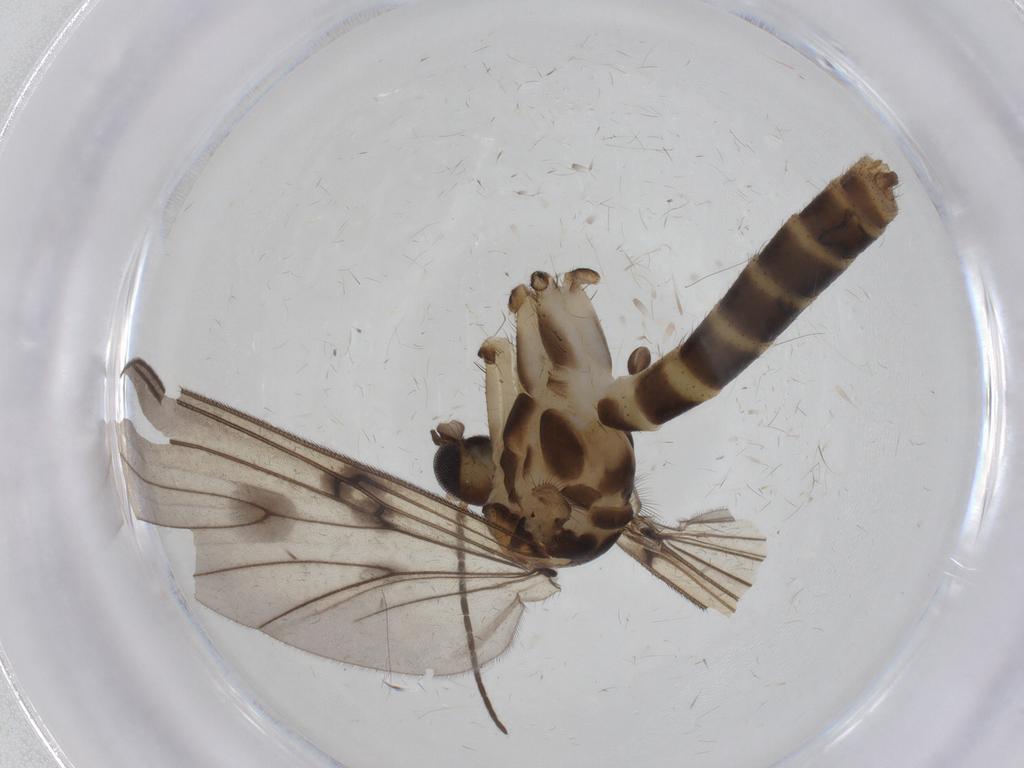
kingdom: Animalia
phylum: Arthropoda
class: Insecta
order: Diptera
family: Mycetophilidae
